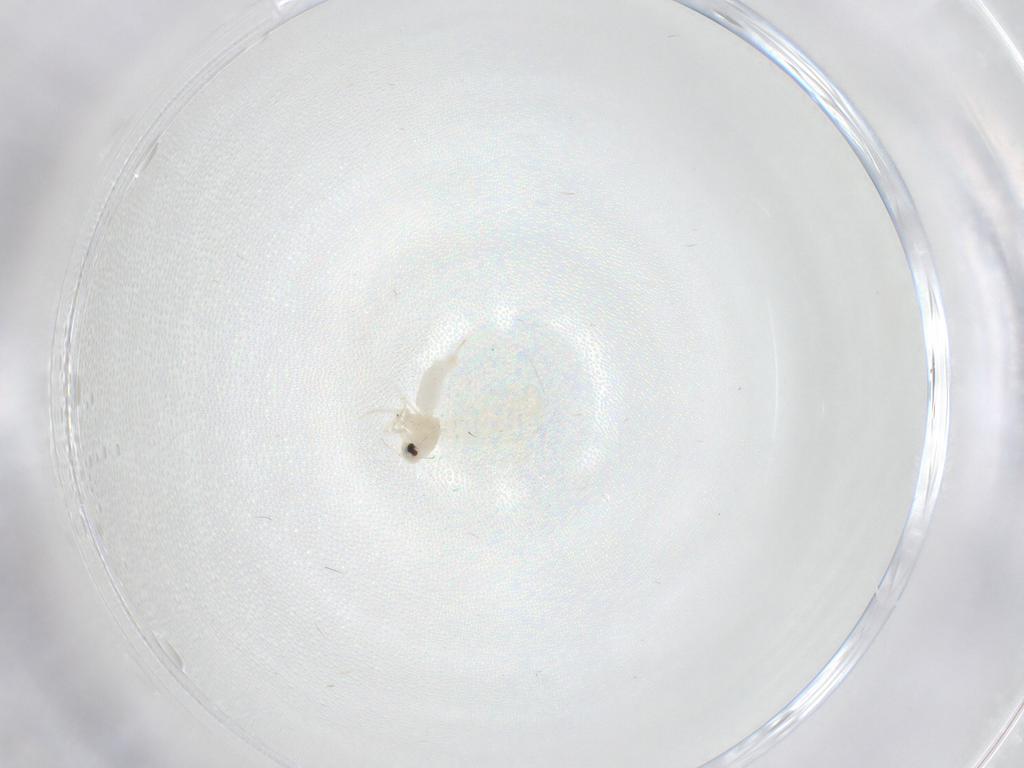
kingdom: Animalia
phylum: Arthropoda
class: Insecta
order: Hemiptera
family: Aleyrodidae
